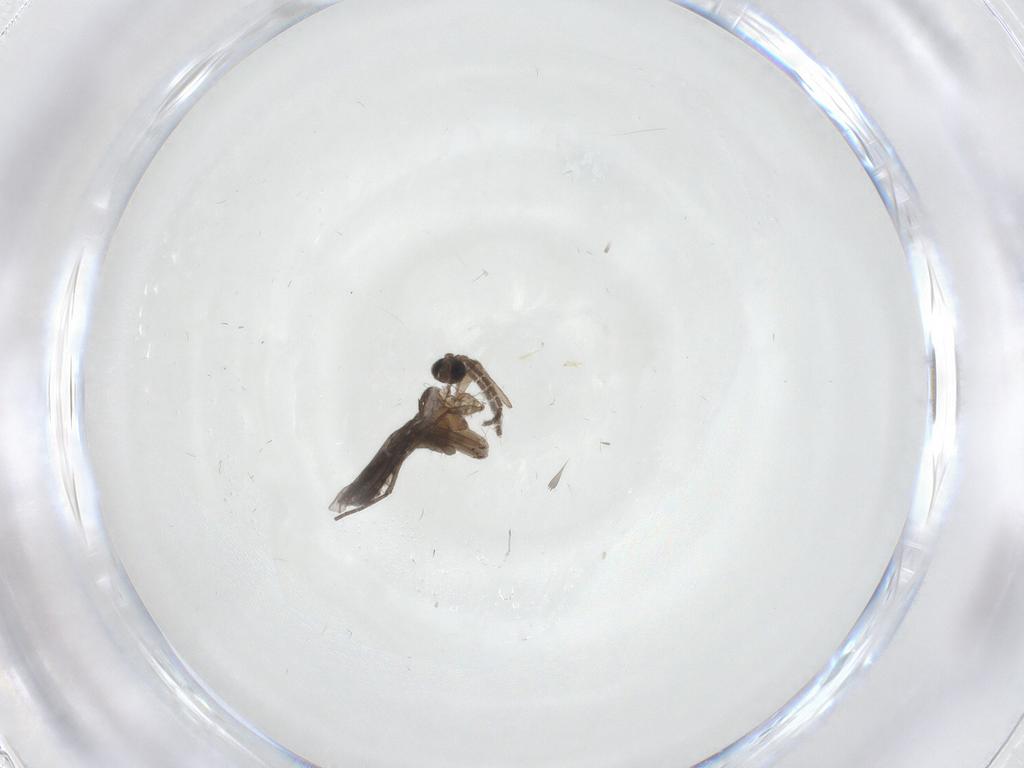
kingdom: Animalia
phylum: Arthropoda
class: Insecta
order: Diptera
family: Sciaridae
